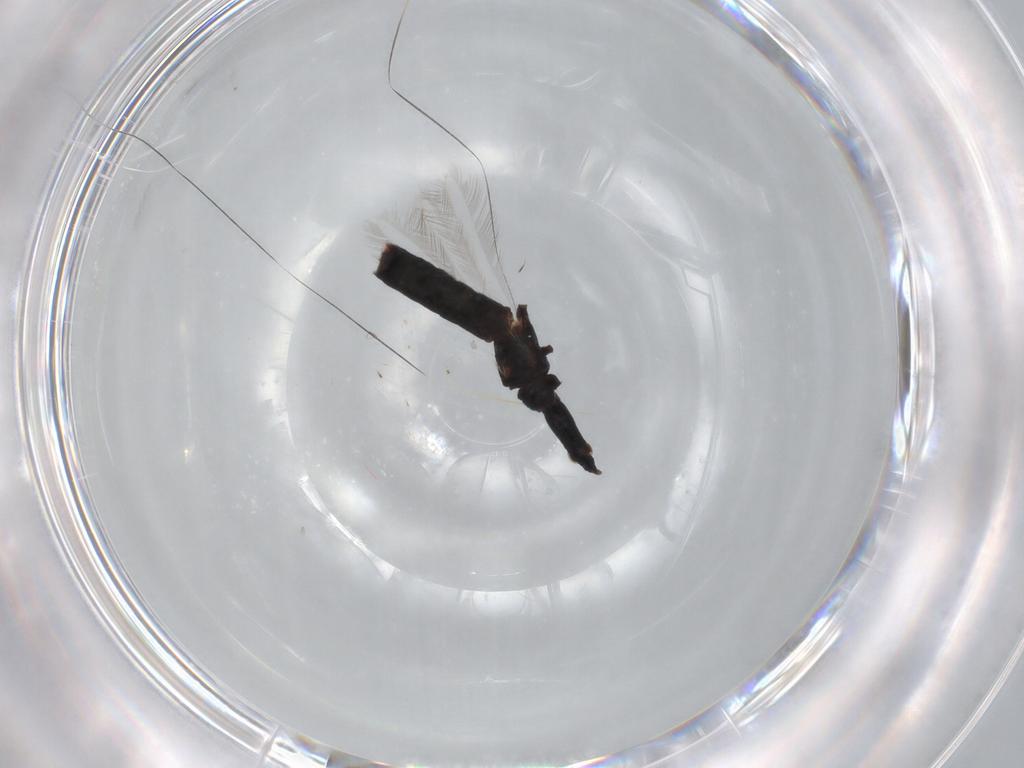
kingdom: Animalia
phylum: Arthropoda
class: Insecta
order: Thysanoptera
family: Phlaeothripidae
